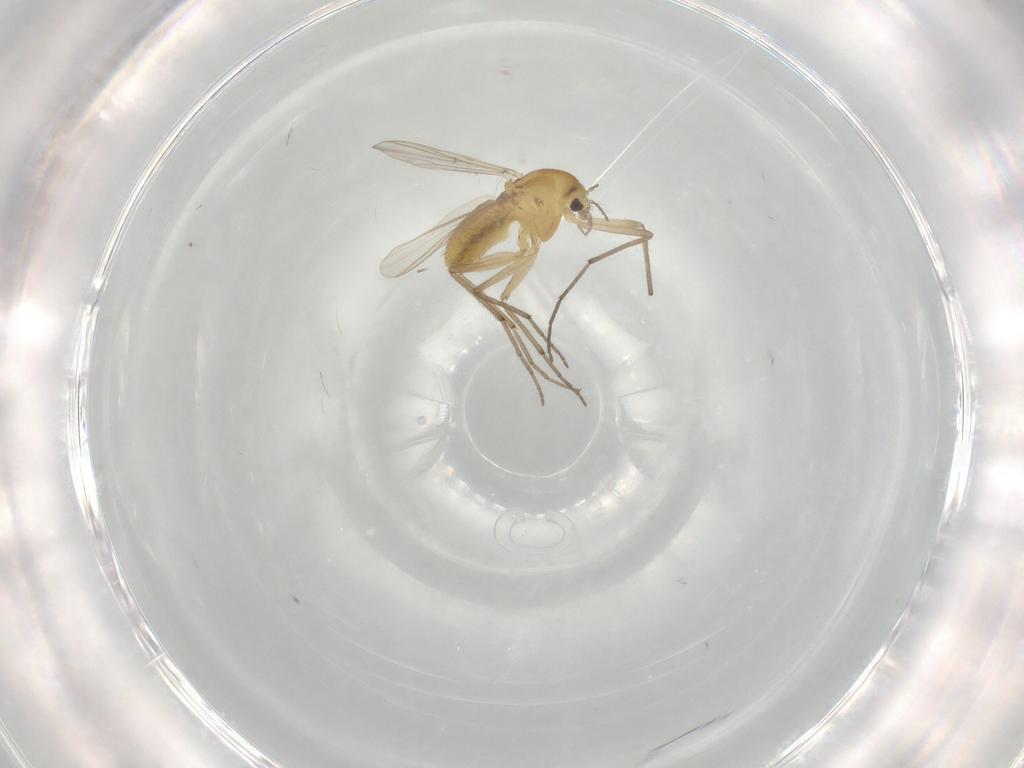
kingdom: Animalia
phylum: Arthropoda
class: Insecta
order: Diptera
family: Chironomidae
